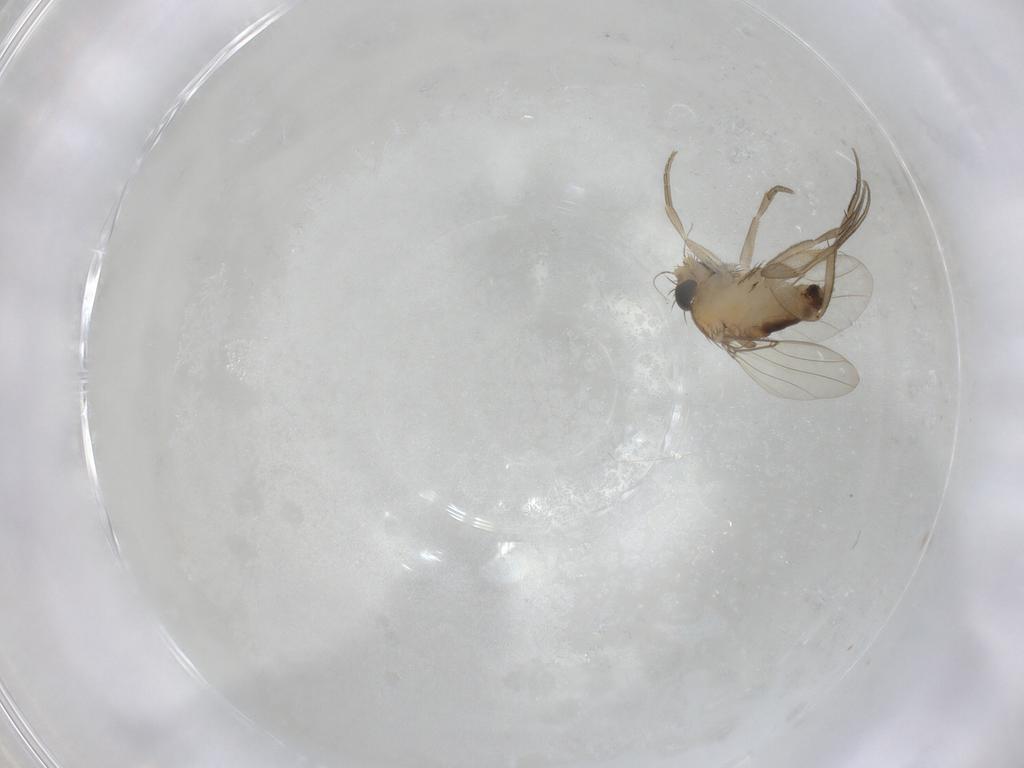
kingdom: Animalia
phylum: Arthropoda
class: Insecta
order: Diptera
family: Phoridae
